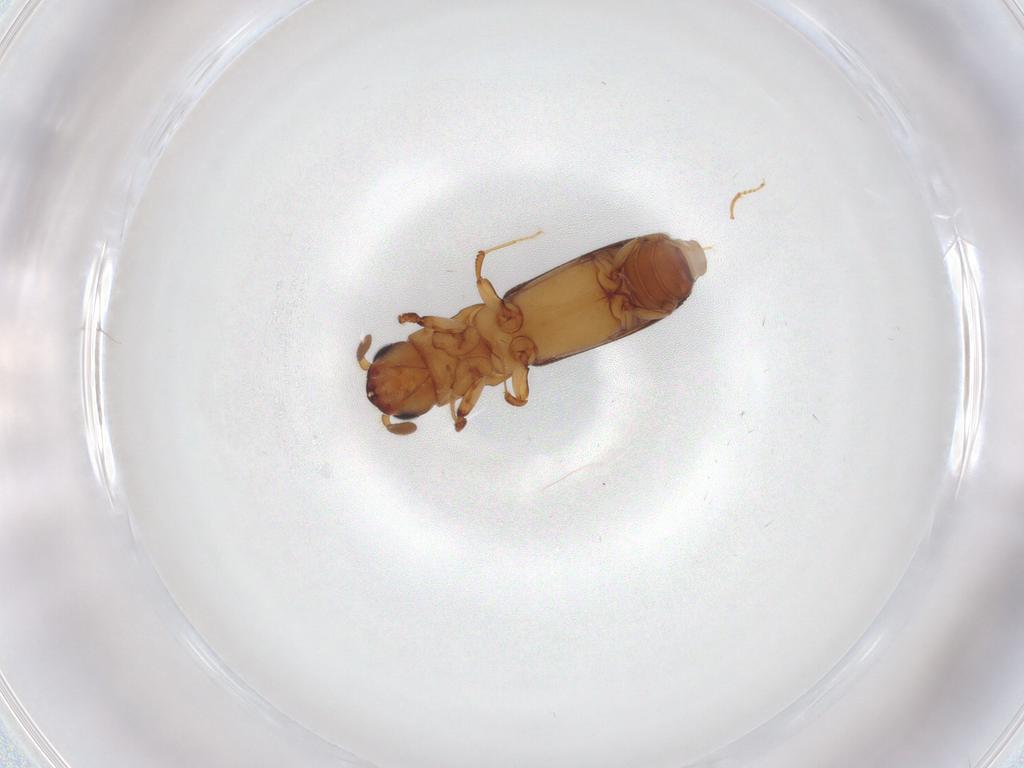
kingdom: Animalia
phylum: Arthropoda
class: Insecta
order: Coleoptera
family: Curculionidae
